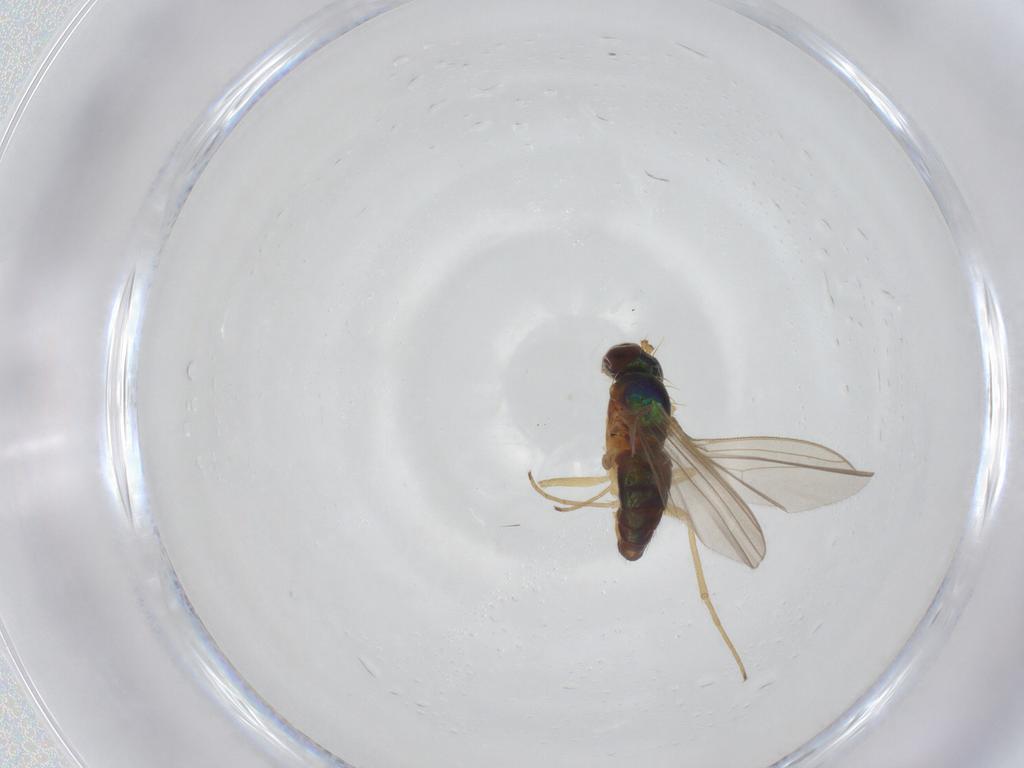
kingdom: Animalia
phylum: Arthropoda
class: Insecta
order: Diptera
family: Dolichopodidae
